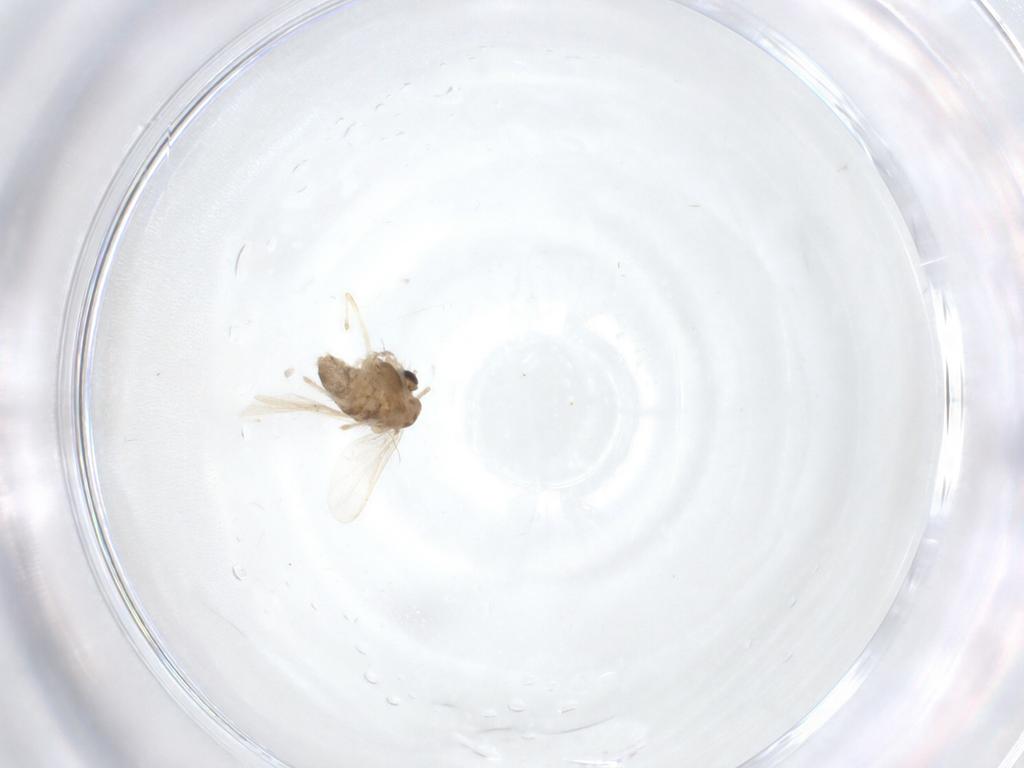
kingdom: Animalia
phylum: Arthropoda
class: Insecta
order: Diptera
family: Chironomidae
